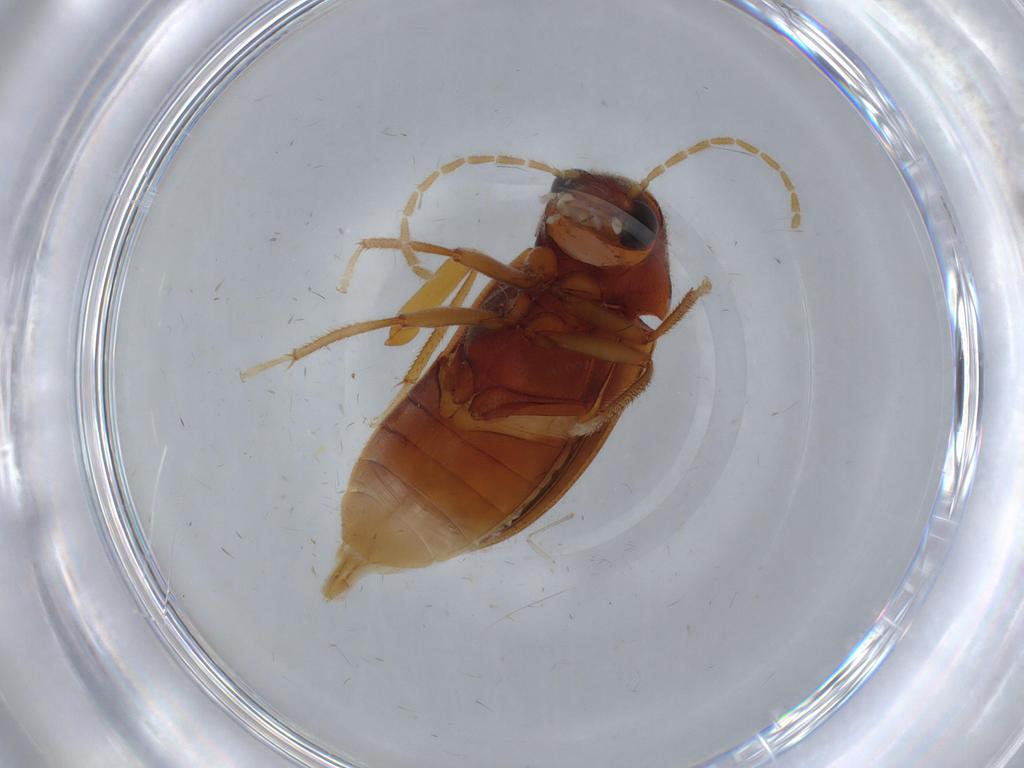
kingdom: Animalia
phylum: Arthropoda
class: Insecta
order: Coleoptera
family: Ptilodactylidae
